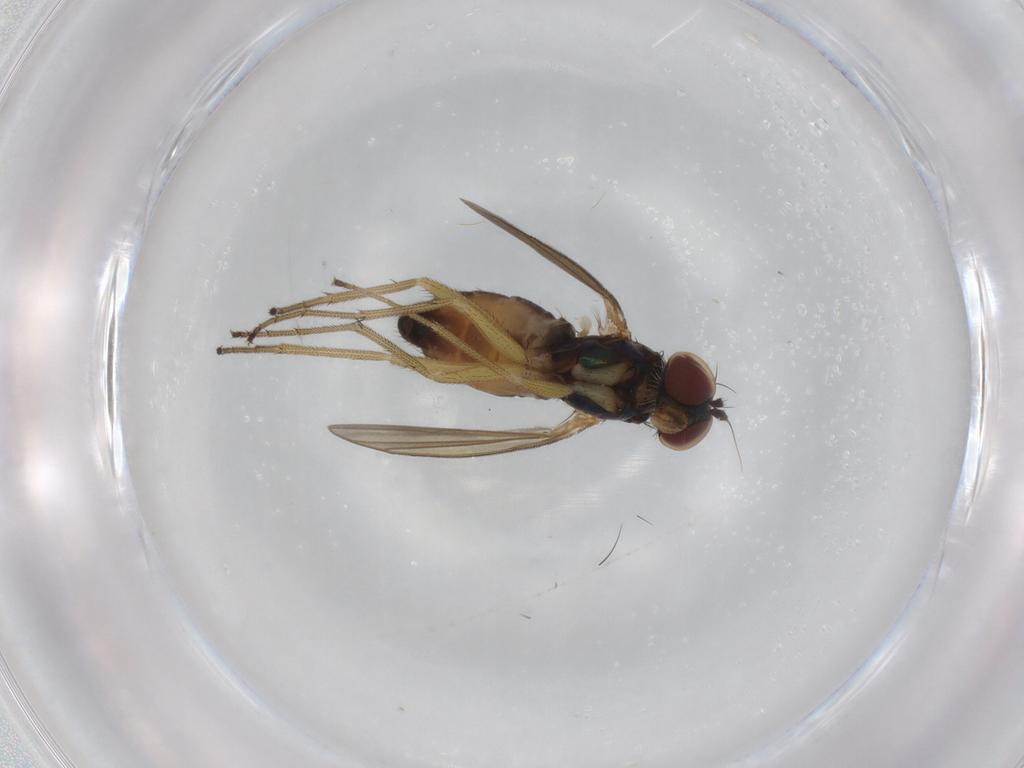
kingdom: Animalia
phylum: Arthropoda
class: Insecta
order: Diptera
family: Dolichopodidae
